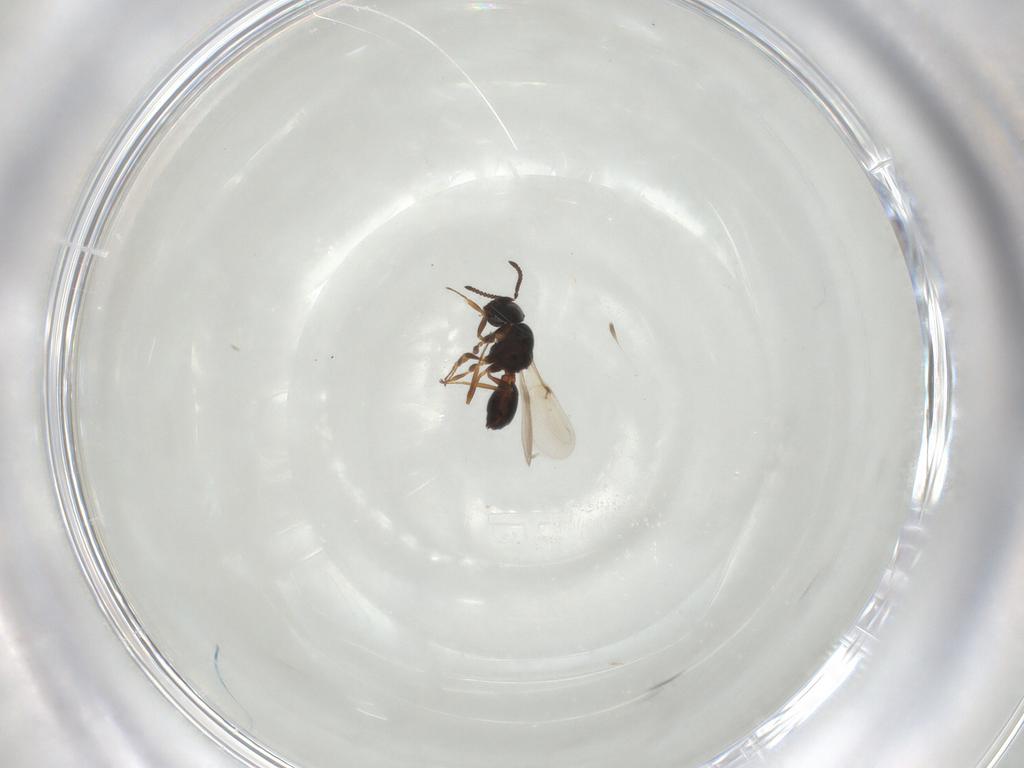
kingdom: Animalia
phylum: Arthropoda
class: Insecta
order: Hymenoptera
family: Scelionidae
